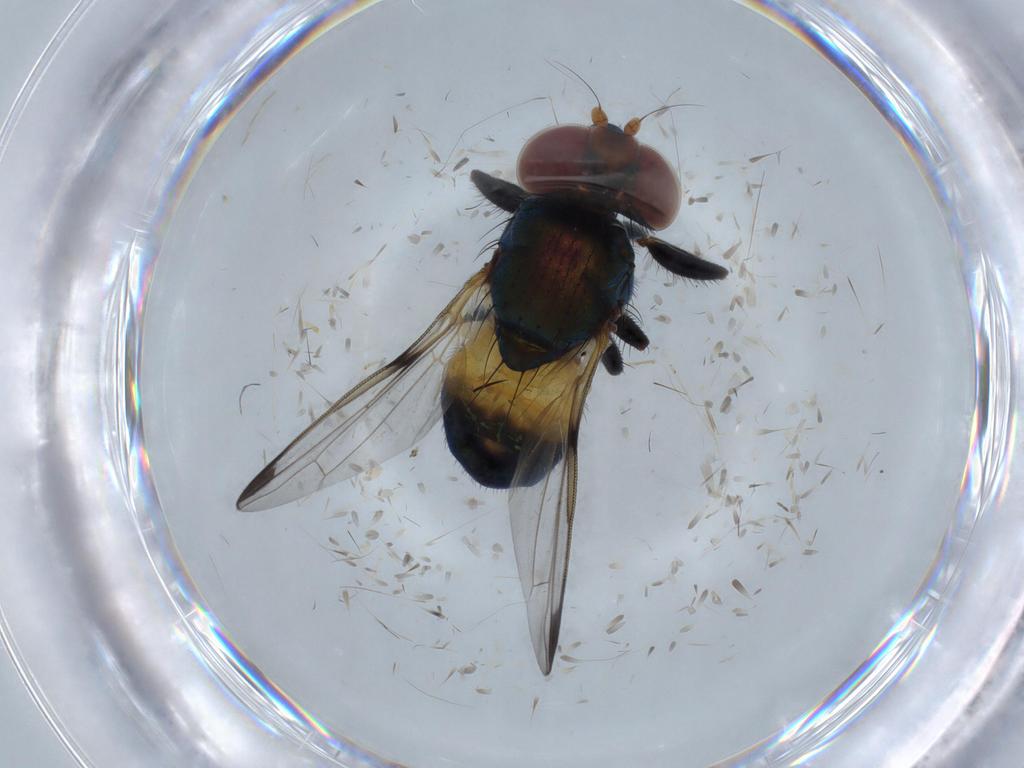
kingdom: Animalia
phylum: Arthropoda
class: Insecta
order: Diptera
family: Ulidiidae
